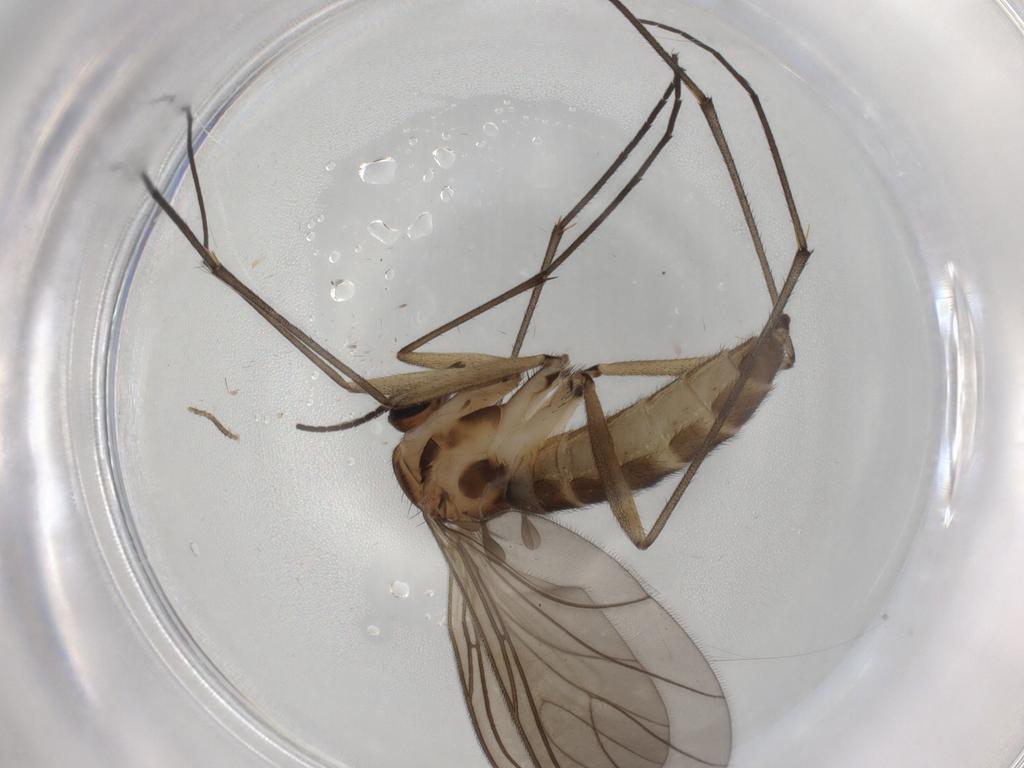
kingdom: Animalia
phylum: Arthropoda
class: Insecta
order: Diptera
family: Sciaridae
